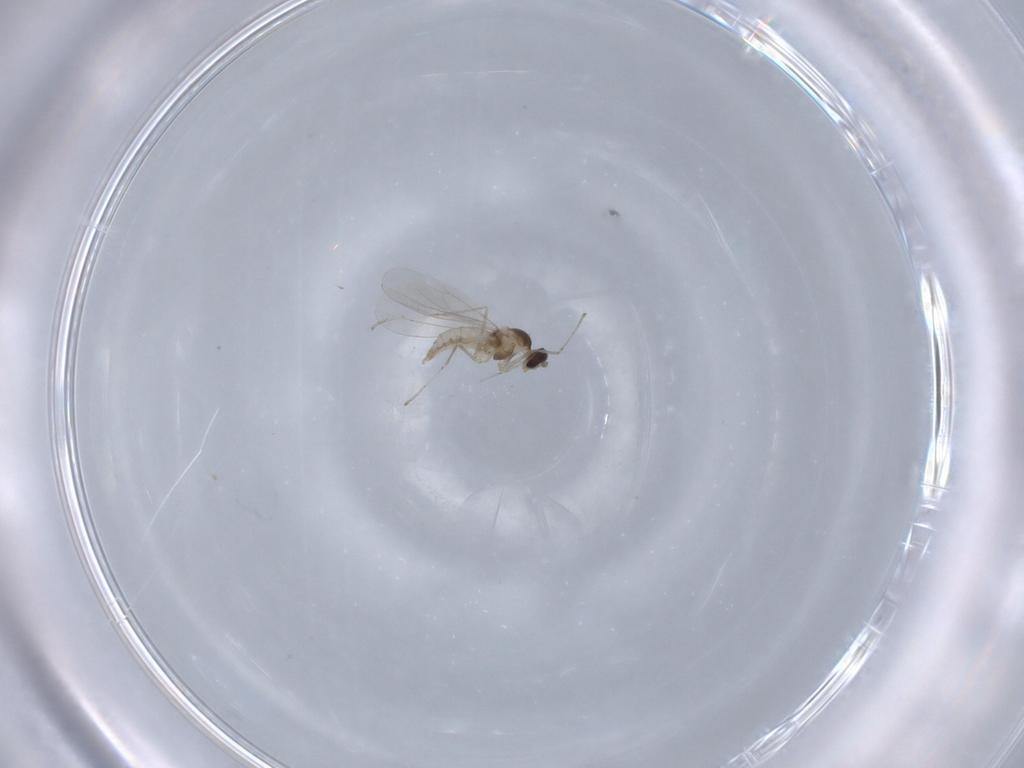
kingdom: Animalia
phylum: Arthropoda
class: Insecta
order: Diptera
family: Cecidomyiidae
